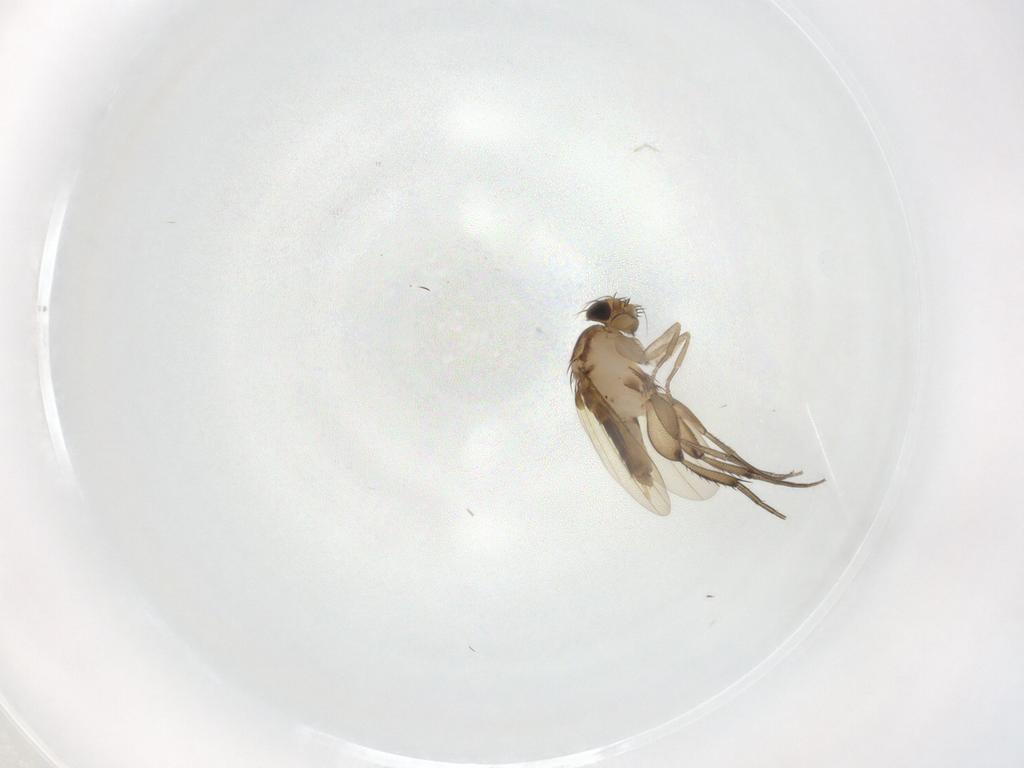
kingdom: Animalia
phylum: Arthropoda
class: Insecta
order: Diptera
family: Phoridae
